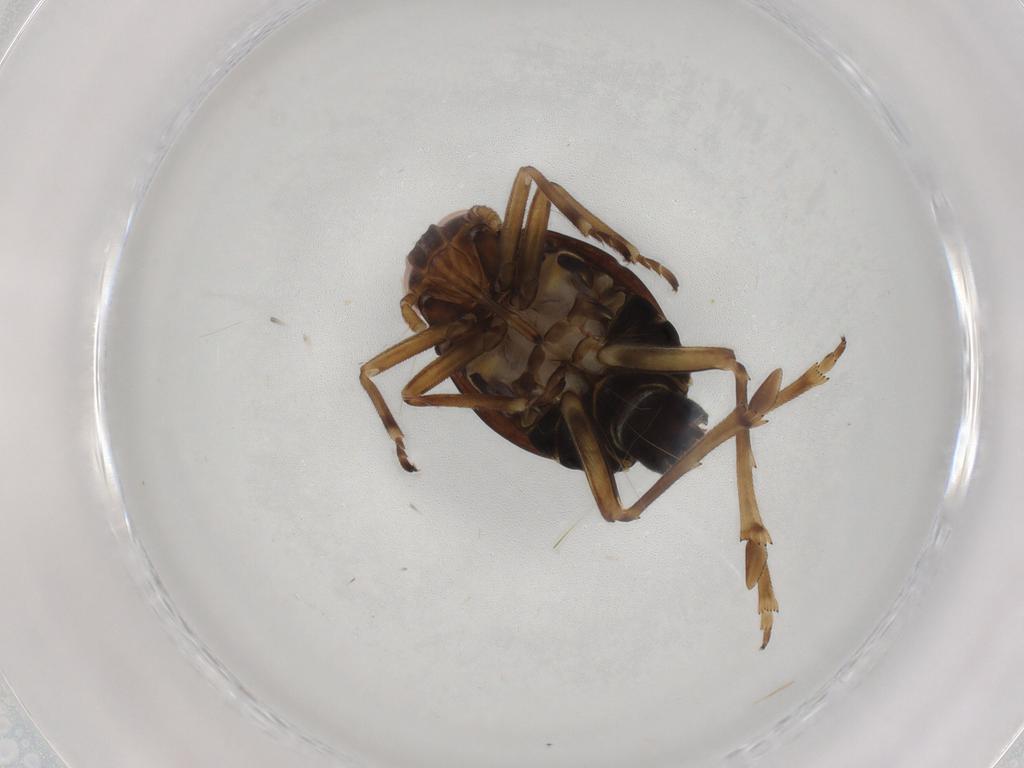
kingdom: Animalia
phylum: Arthropoda
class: Insecta
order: Hemiptera
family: Delphacidae
